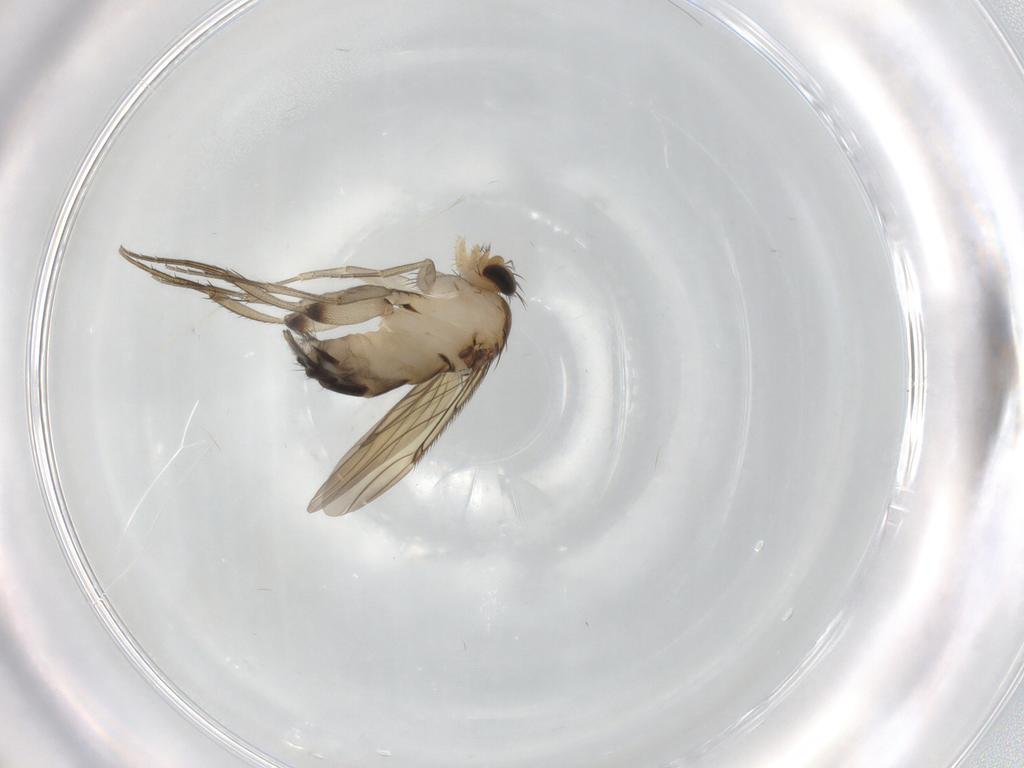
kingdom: Animalia
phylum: Arthropoda
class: Insecta
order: Diptera
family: Phoridae
